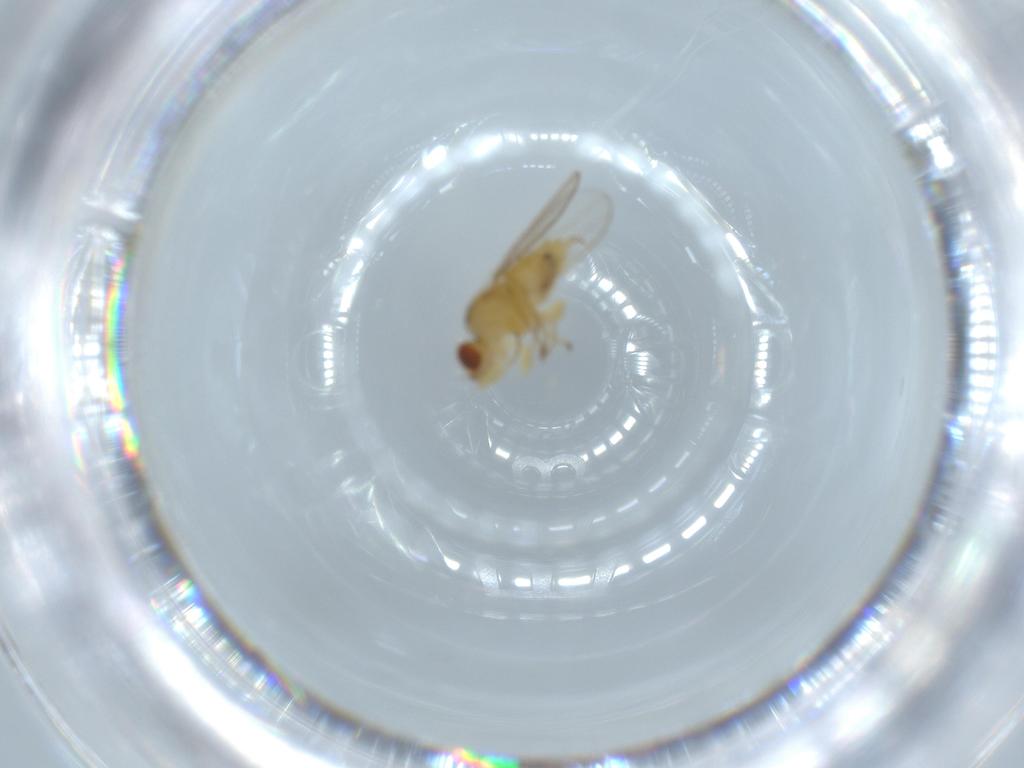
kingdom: Animalia
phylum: Arthropoda
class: Insecta
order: Diptera
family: Chloropidae
